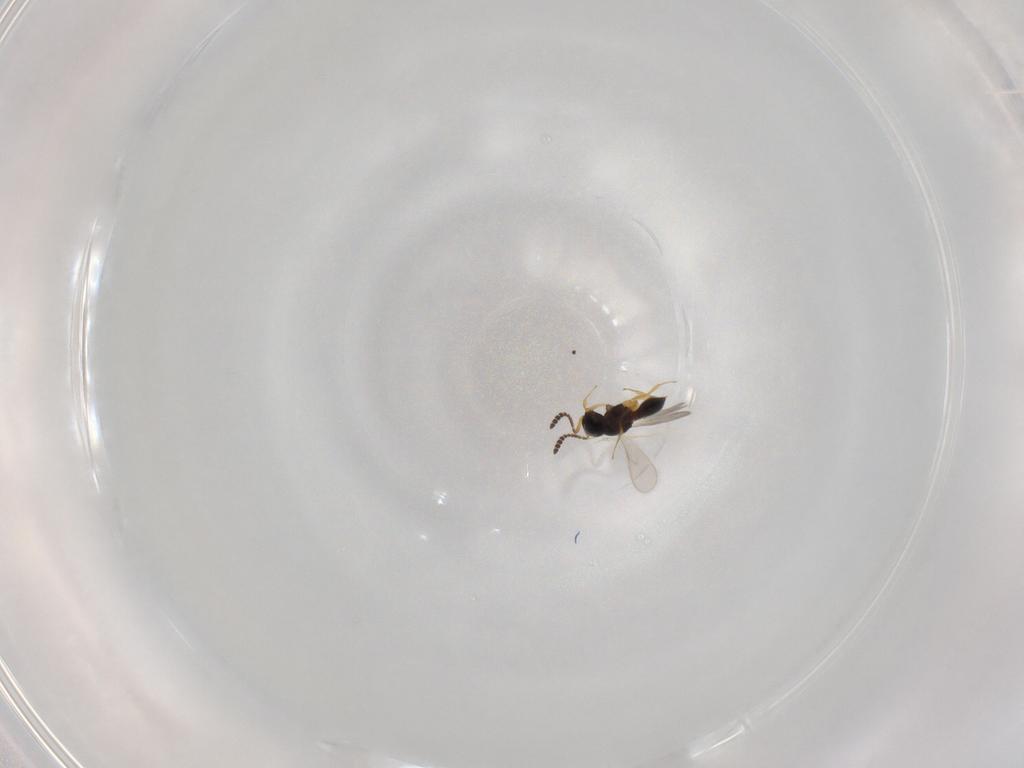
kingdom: Animalia
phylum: Arthropoda
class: Insecta
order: Hymenoptera
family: Scelionidae
